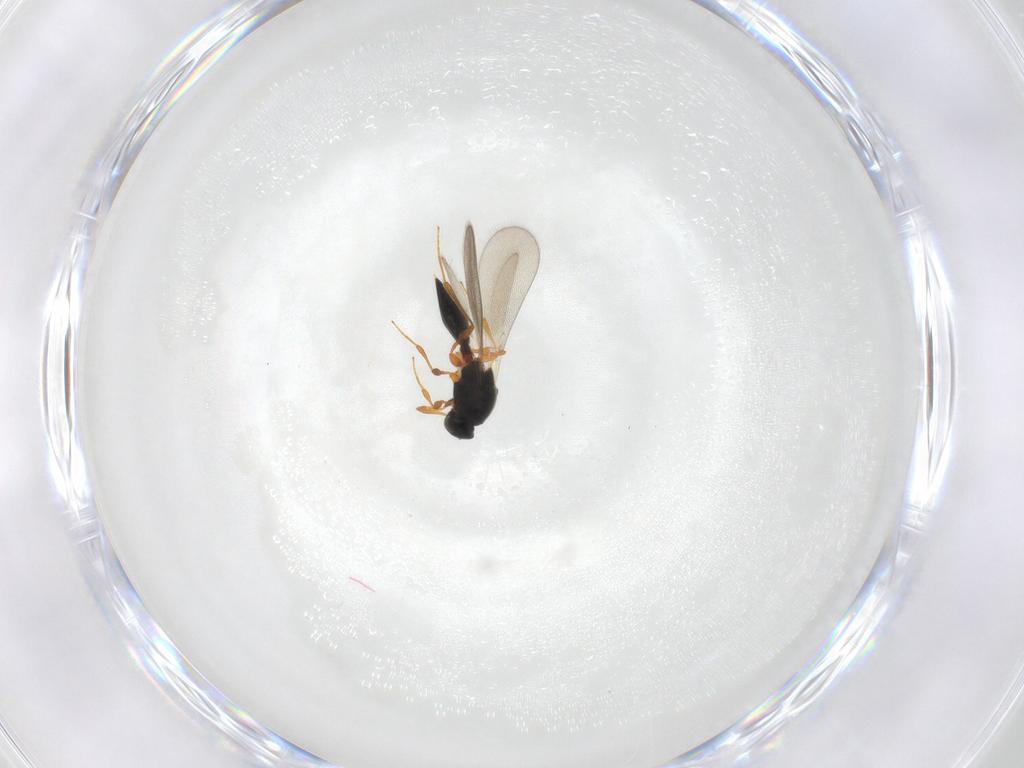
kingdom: Animalia
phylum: Arthropoda
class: Insecta
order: Hymenoptera
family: Platygastridae
